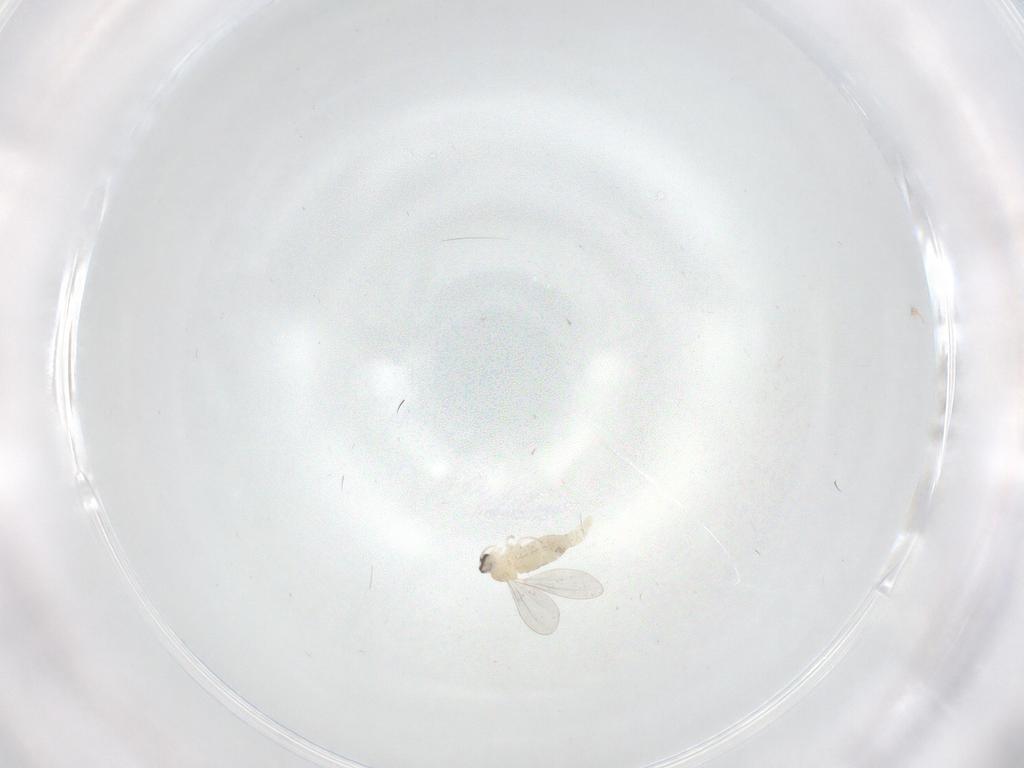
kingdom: Animalia
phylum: Arthropoda
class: Insecta
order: Diptera
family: Cecidomyiidae
